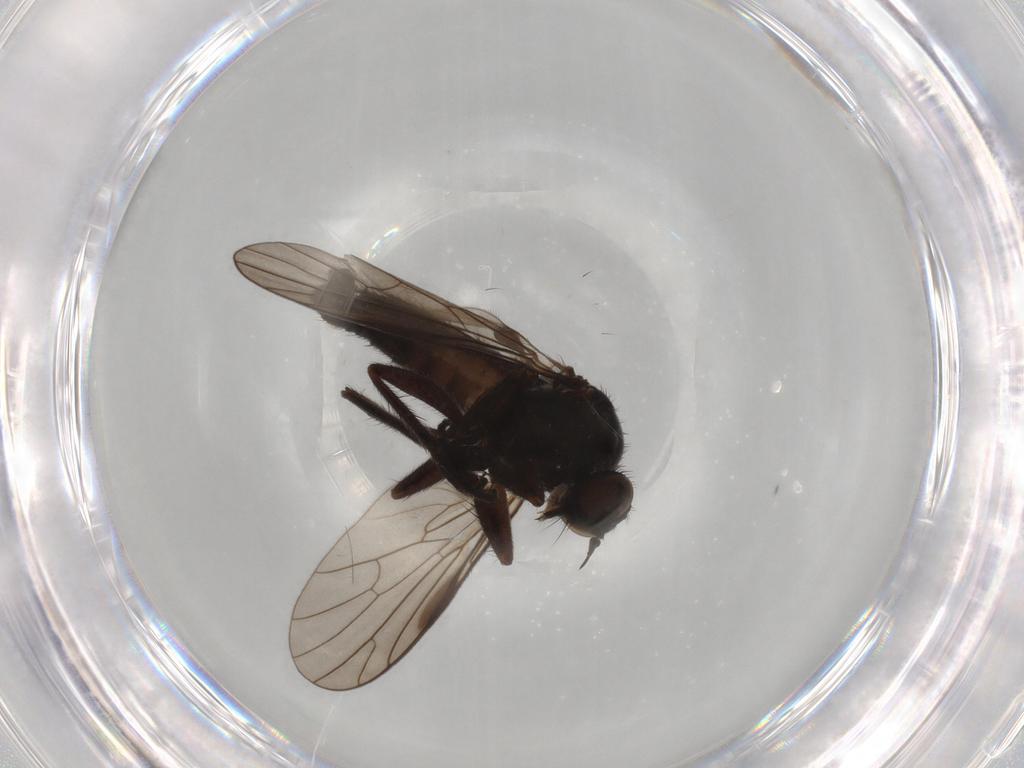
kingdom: Animalia
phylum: Arthropoda
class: Insecta
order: Diptera
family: Empididae
